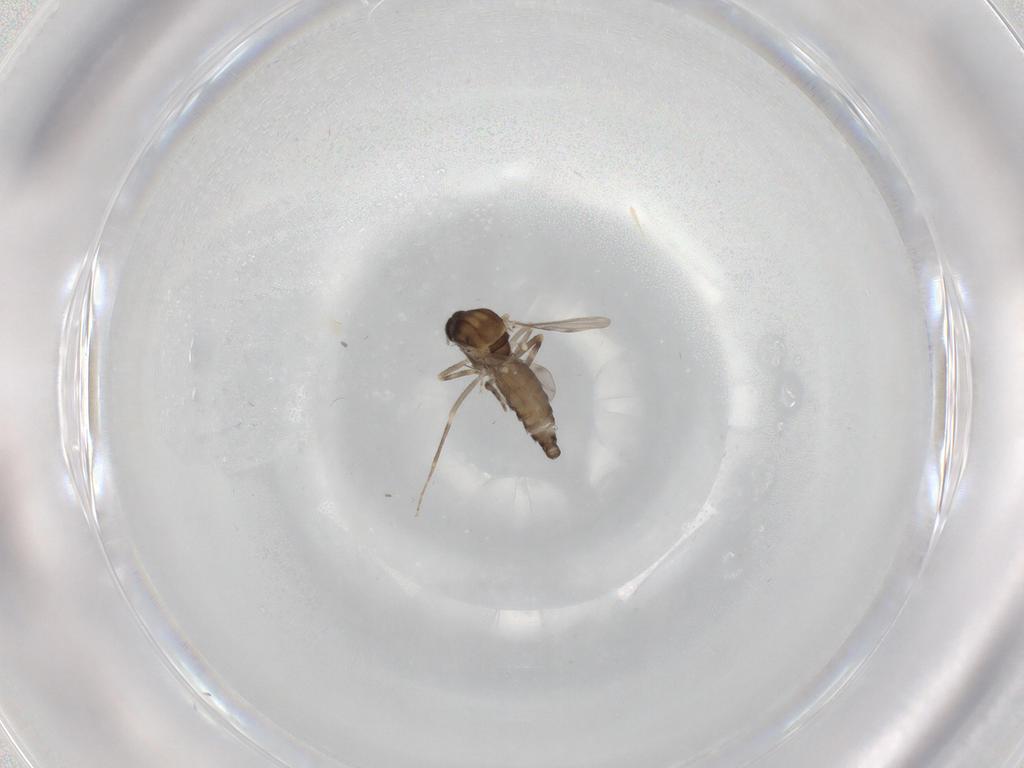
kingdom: Animalia
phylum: Arthropoda
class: Insecta
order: Diptera
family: Ceratopogonidae
